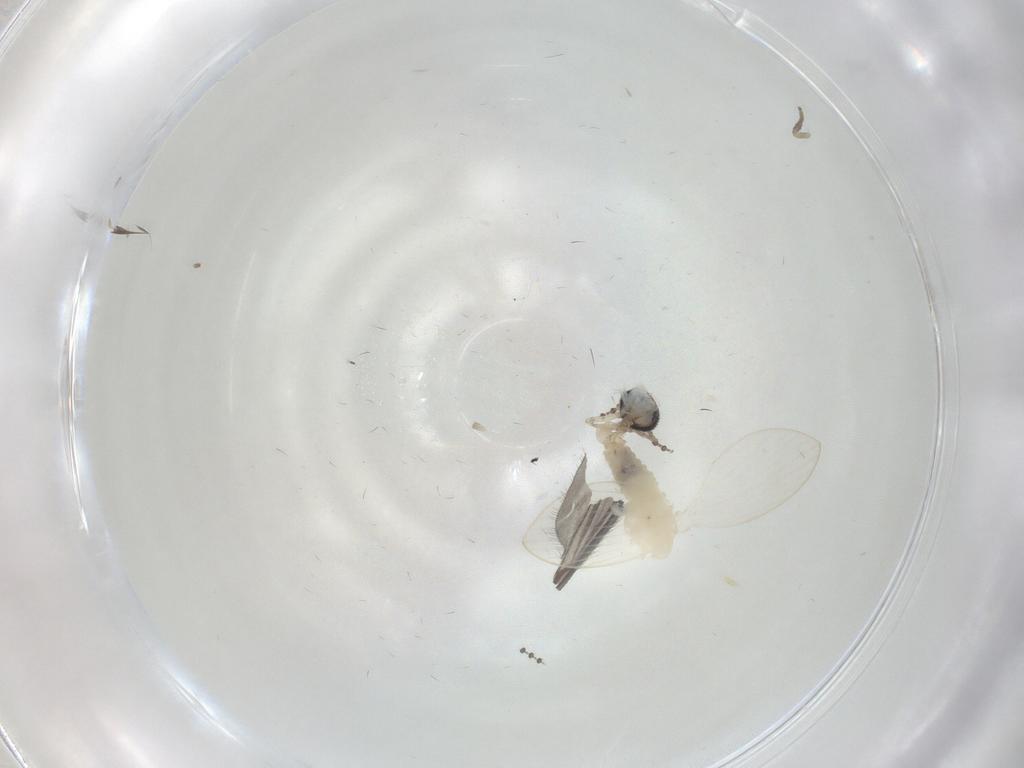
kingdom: Animalia
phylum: Arthropoda
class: Insecta
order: Diptera
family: Psychodidae
